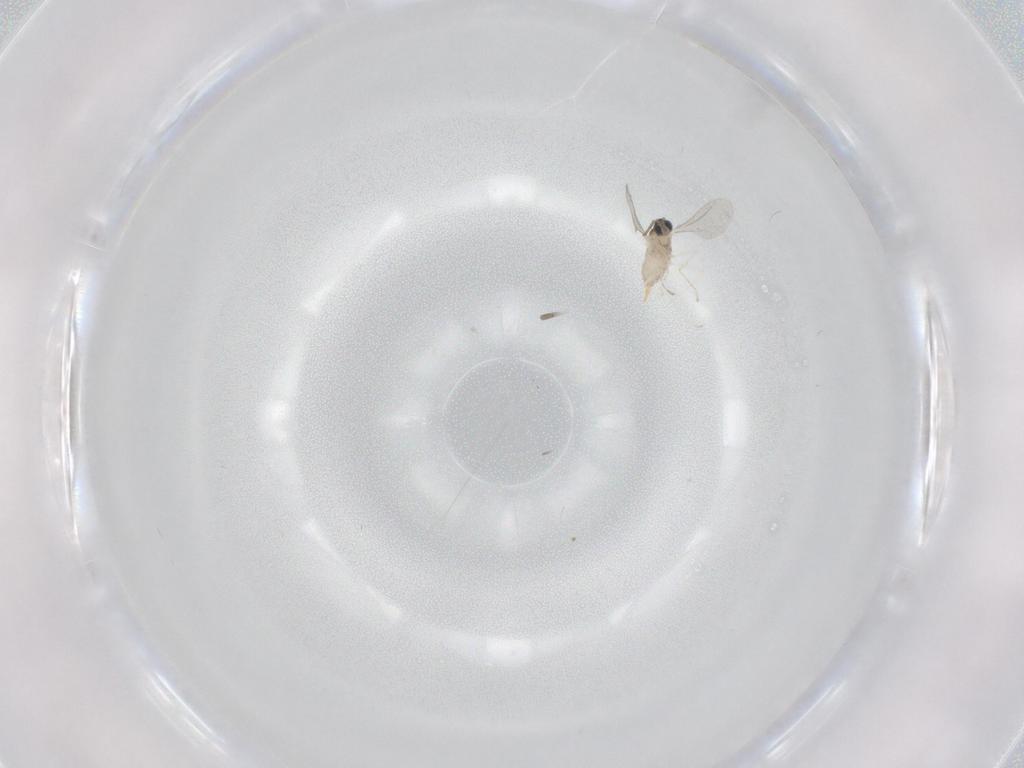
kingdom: Animalia
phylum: Arthropoda
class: Insecta
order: Diptera
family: Cecidomyiidae
